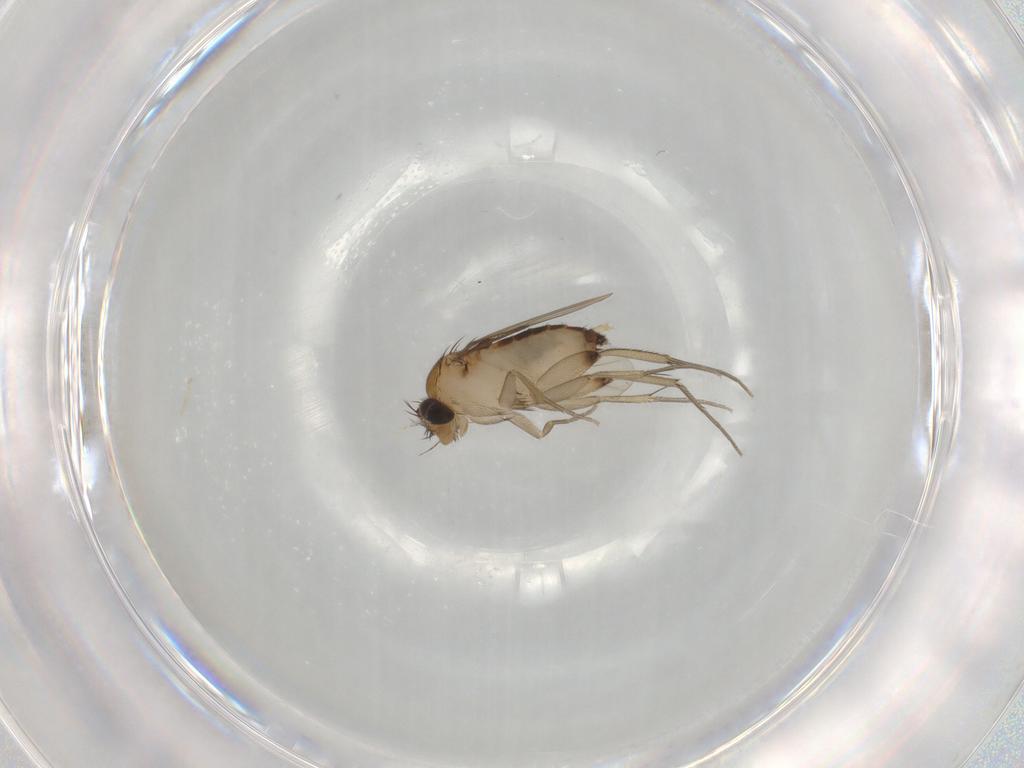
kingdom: Animalia
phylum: Arthropoda
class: Insecta
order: Diptera
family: Phoridae
